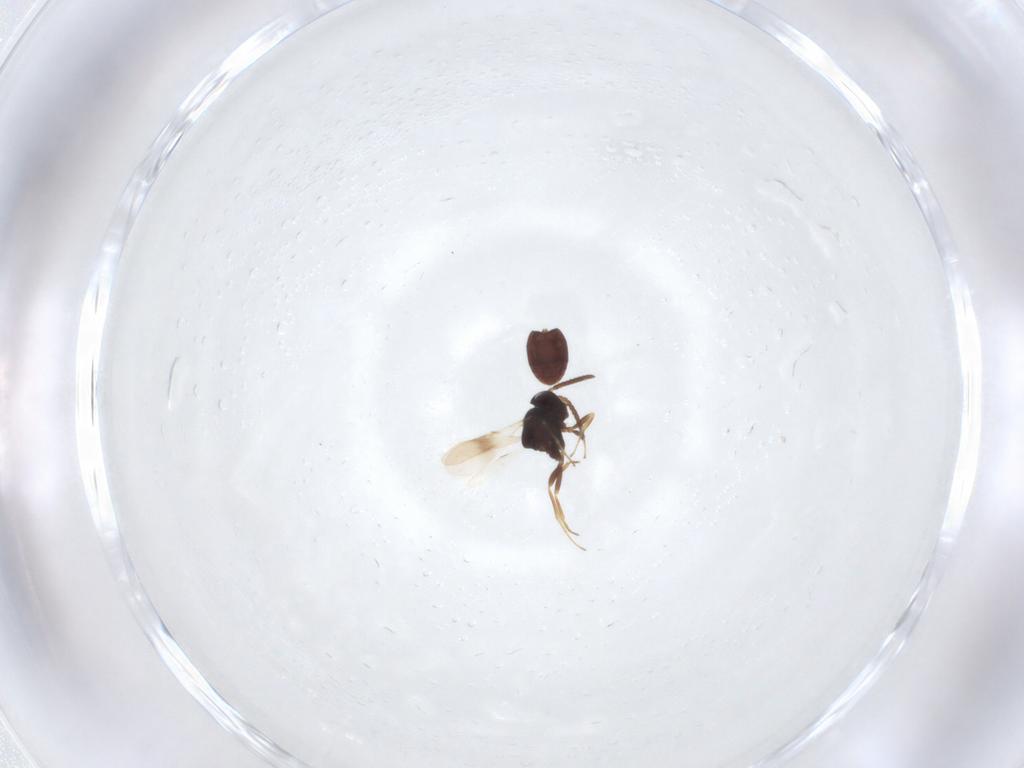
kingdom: Animalia
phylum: Arthropoda
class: Insecta
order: Hymenoptera
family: Scelionidae
